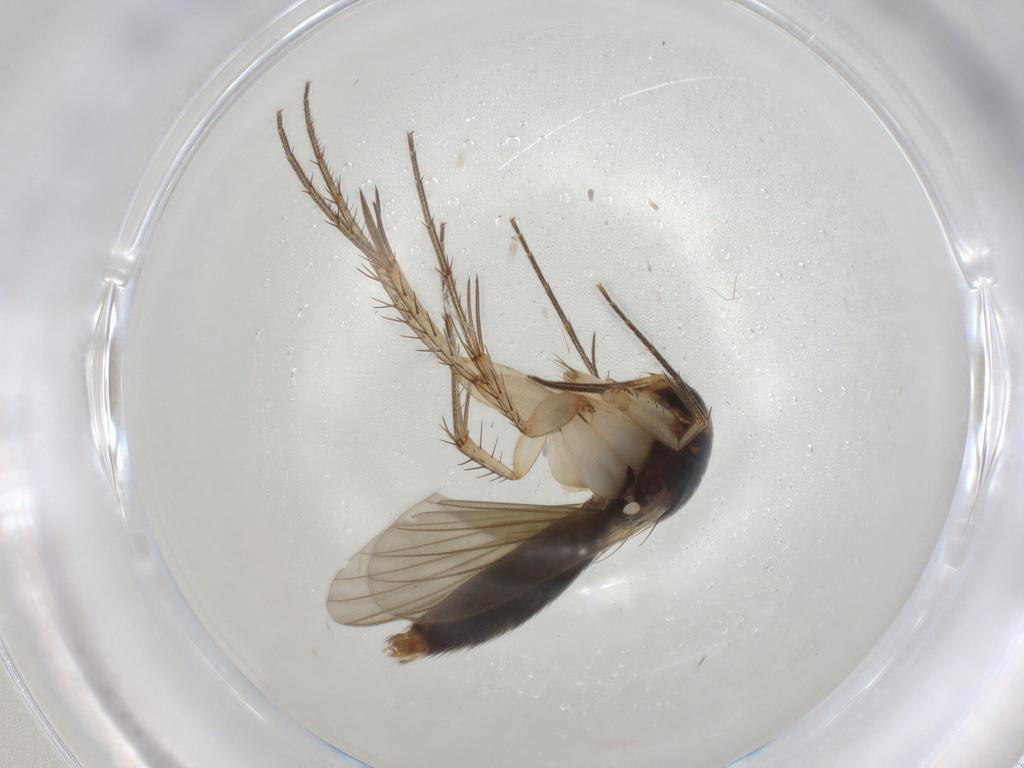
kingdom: Animalia
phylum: Arthropoda
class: Insecta
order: Diptera
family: Mycetophilidae
